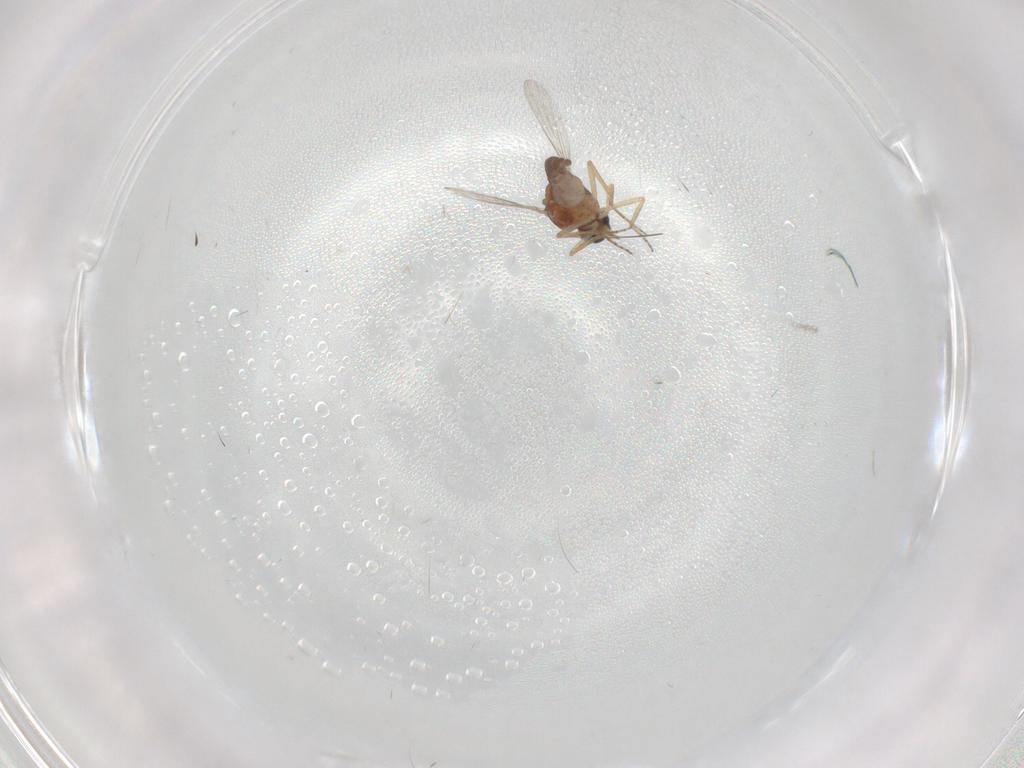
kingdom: Animalia
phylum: Arthropoda
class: Insecta
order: Diptera
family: Ceratopogonidae
